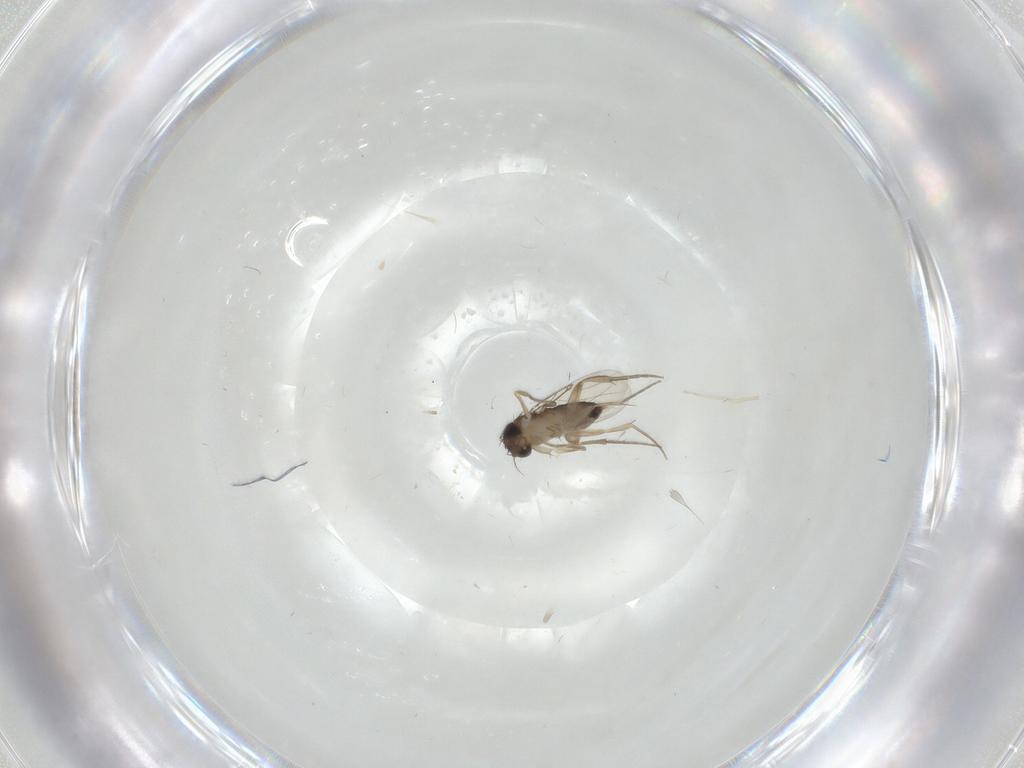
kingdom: Animalia
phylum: Arthropoda
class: Insecta
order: Diptera
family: Phoridae
